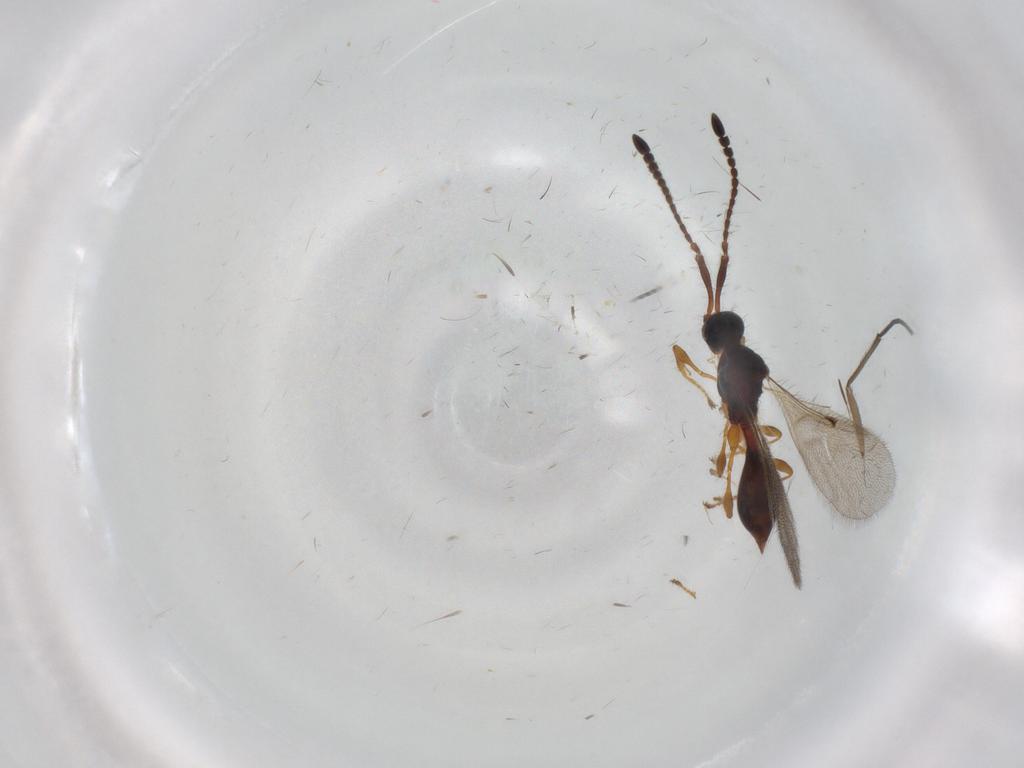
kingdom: Animalia
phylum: Arthropoda
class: Insecta
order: Hymenoptera
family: Diapriidae
